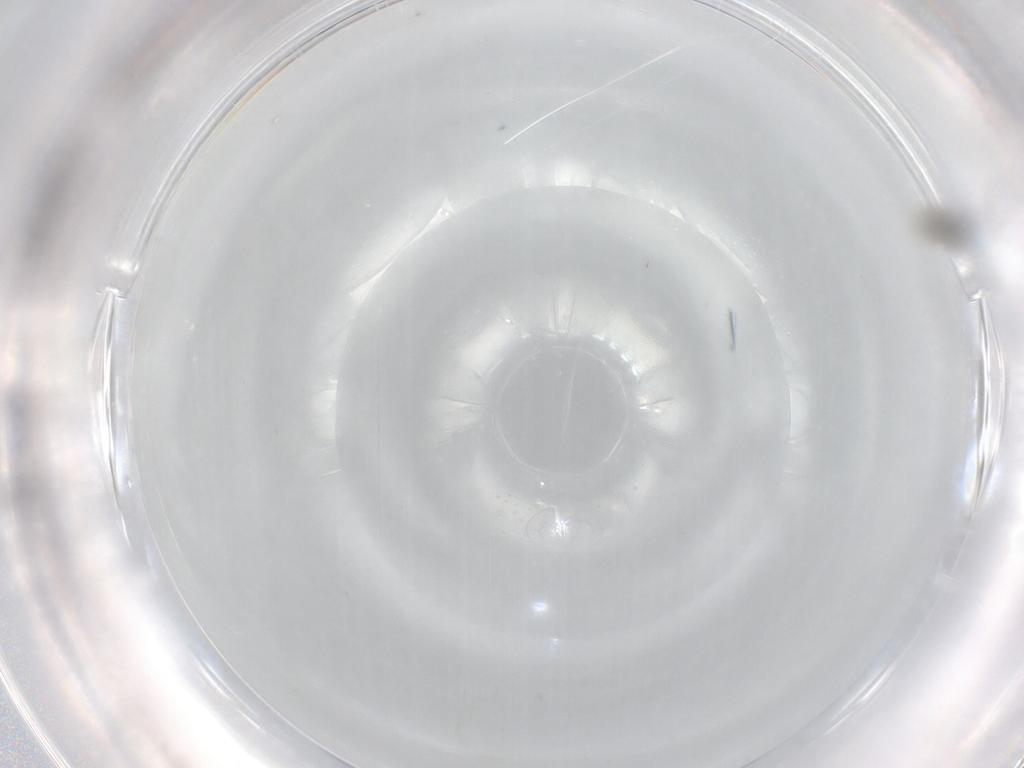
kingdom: Animalia
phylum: Arthropoda
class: Insecta
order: Diptera
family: Cecidomyiidae
